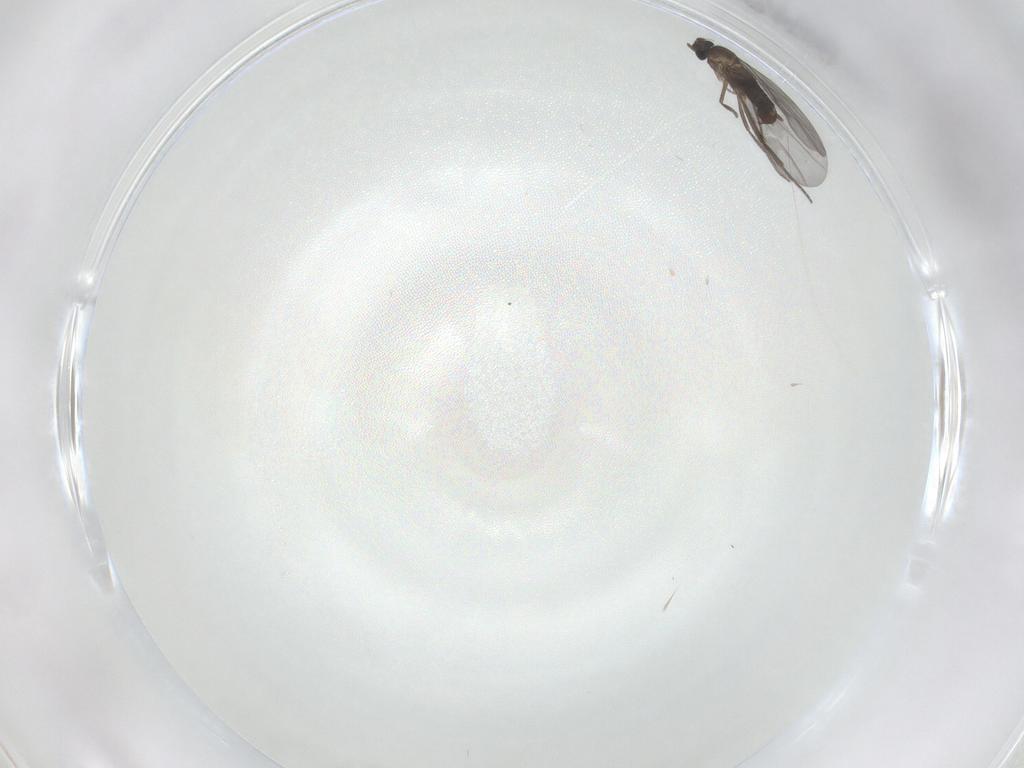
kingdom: Animalia
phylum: Arthropoda
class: Insecta
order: Diptera
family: Phoridae
